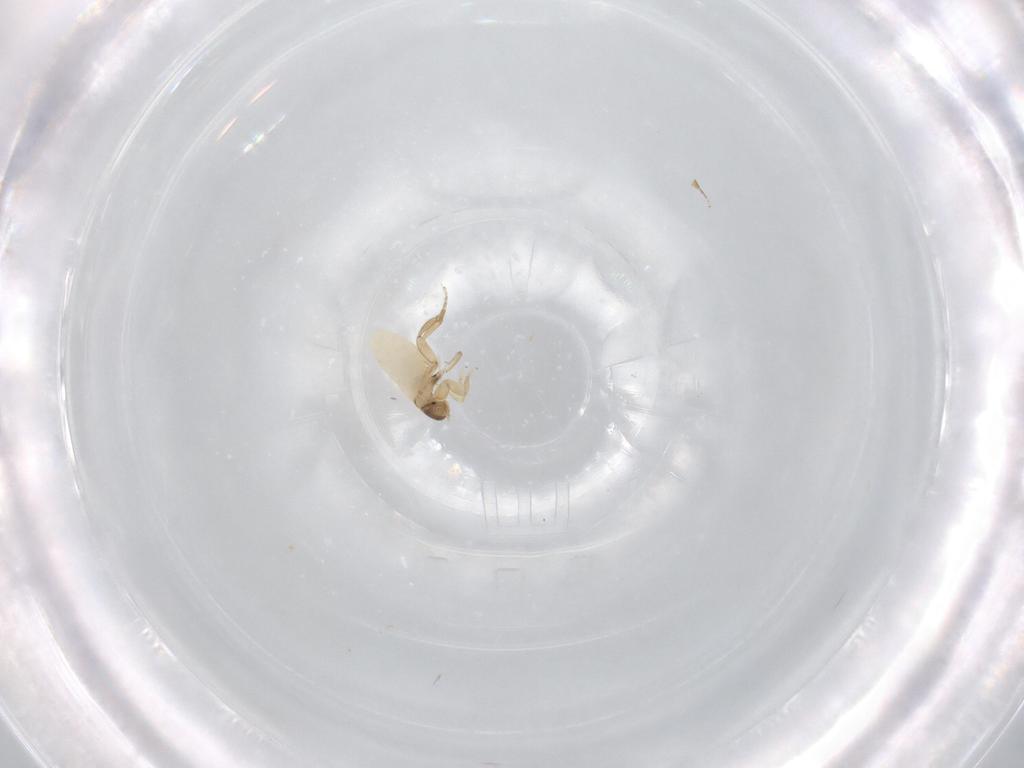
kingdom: Animalia
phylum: Arthropoda
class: Insecta
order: Diptera
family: Phoridae
